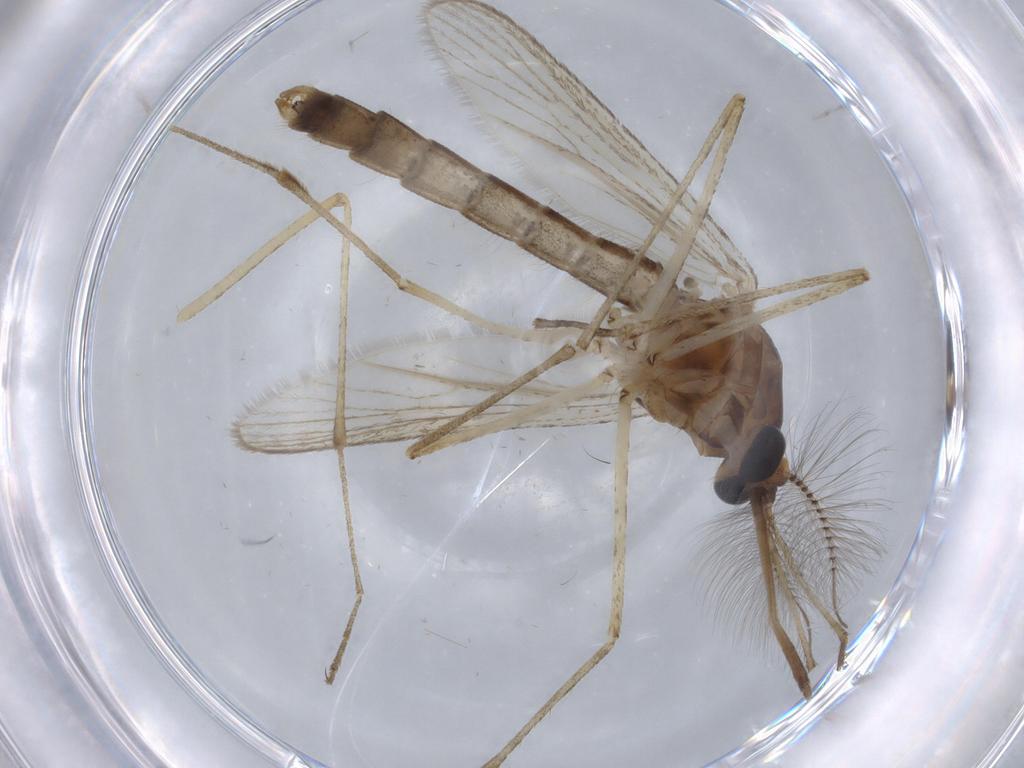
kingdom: Animalia
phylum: Arthropoda
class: Insecta
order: Diptera
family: Culicidae
